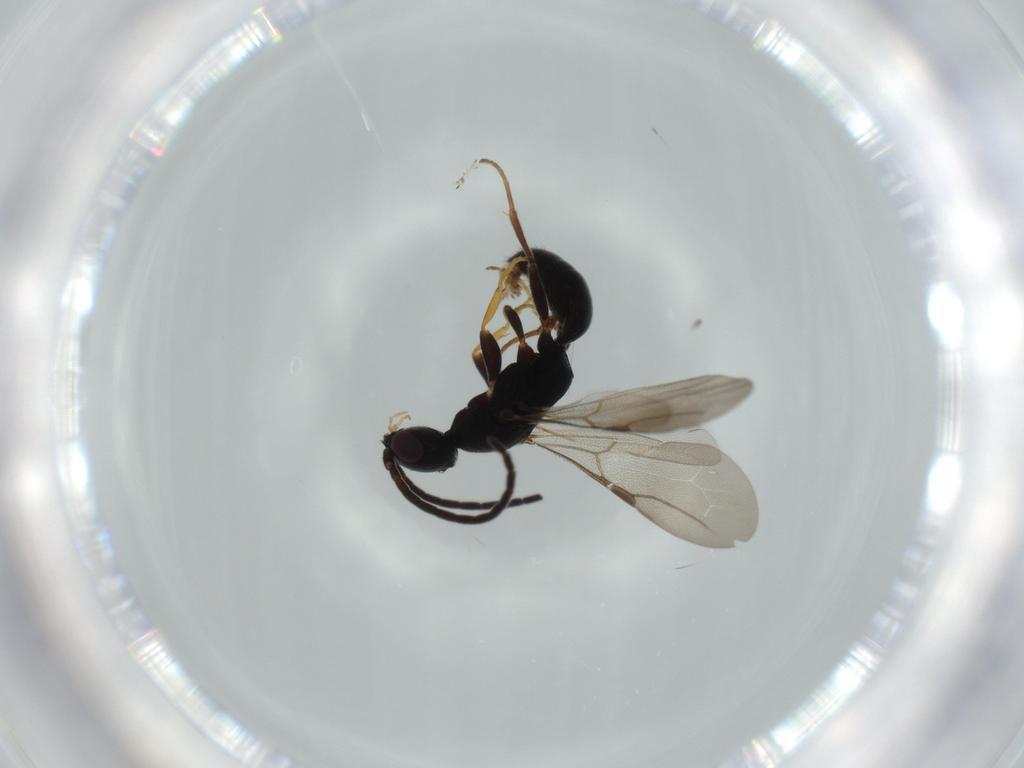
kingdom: Animalia
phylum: Arthropoda
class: Insecta
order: Hymenoptera
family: Bethylidae
